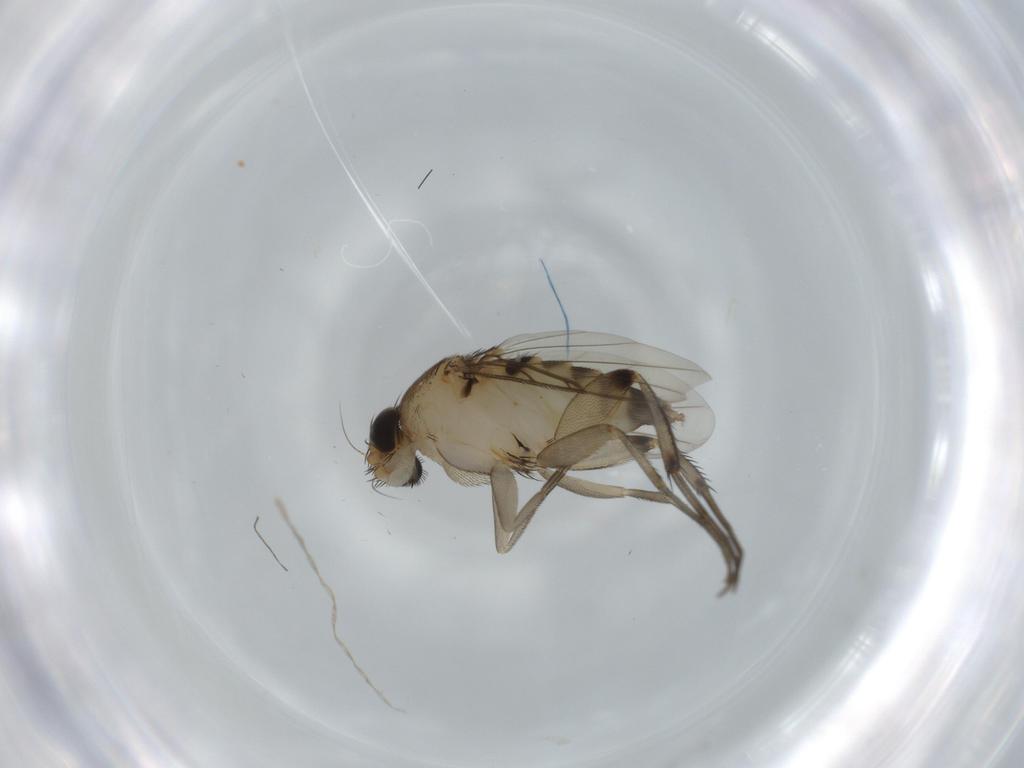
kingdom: Animalia
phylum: Arthropoda
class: Insecta
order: Diptera
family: Phoridae
